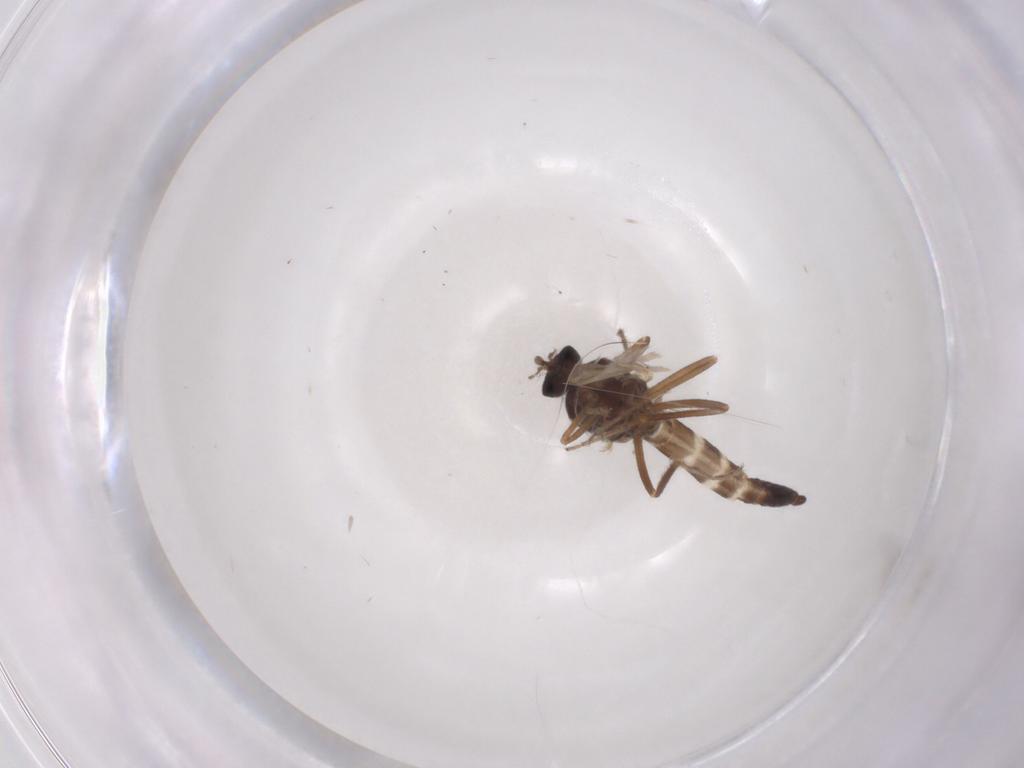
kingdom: Animalia
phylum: Arthropoda
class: Insecta
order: Diptera
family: Ceratopogonidae
